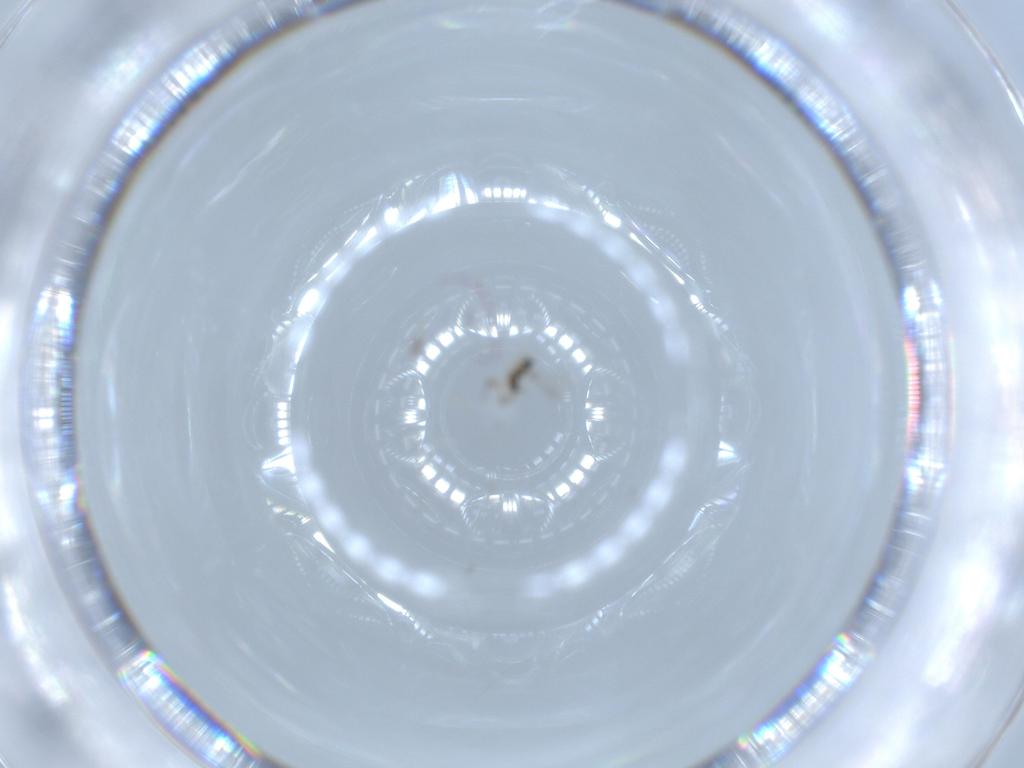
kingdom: Animalia
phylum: Arthropoda
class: Insecta
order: Hymenoptera
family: Mymaridae
